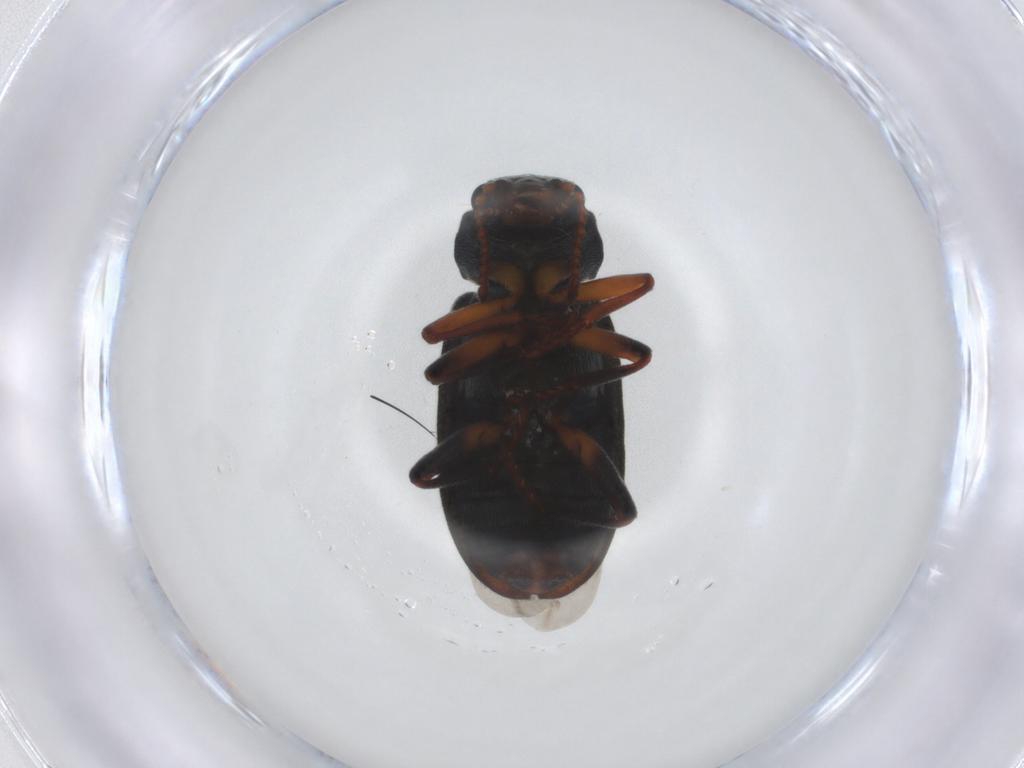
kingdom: Animalia
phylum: Arthropoda
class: Insecta
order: Coleoptera
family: Melyridae
